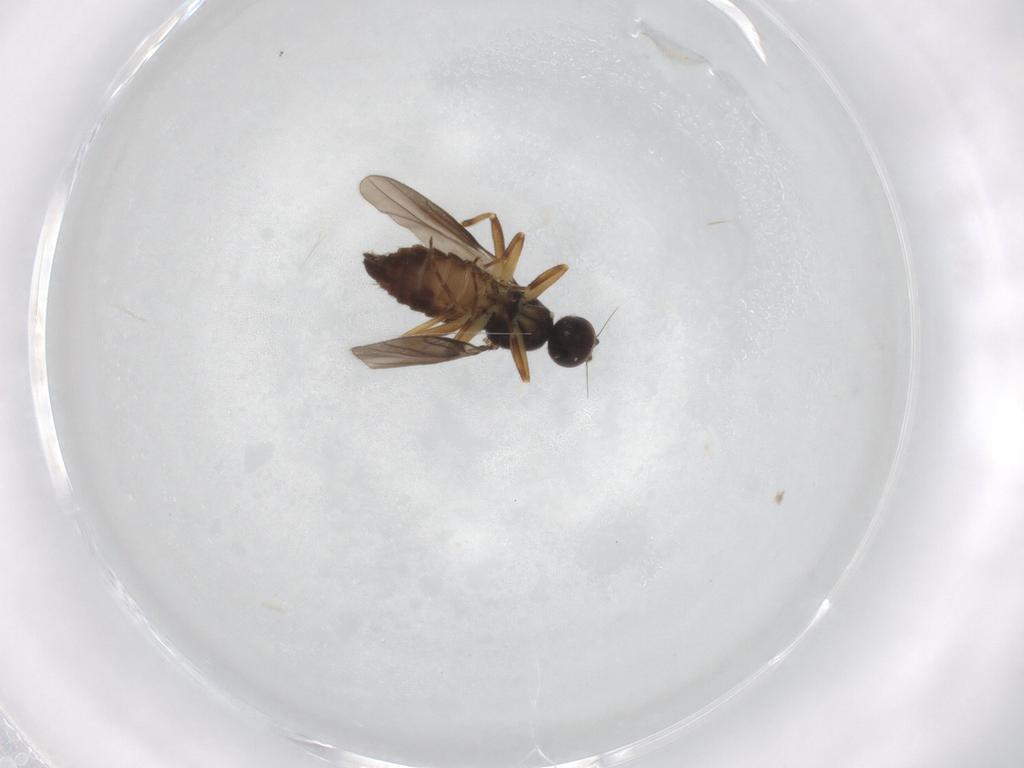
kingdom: Animalia
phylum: Arthropoda
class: Insecta
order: Diptera
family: Hybotidae
